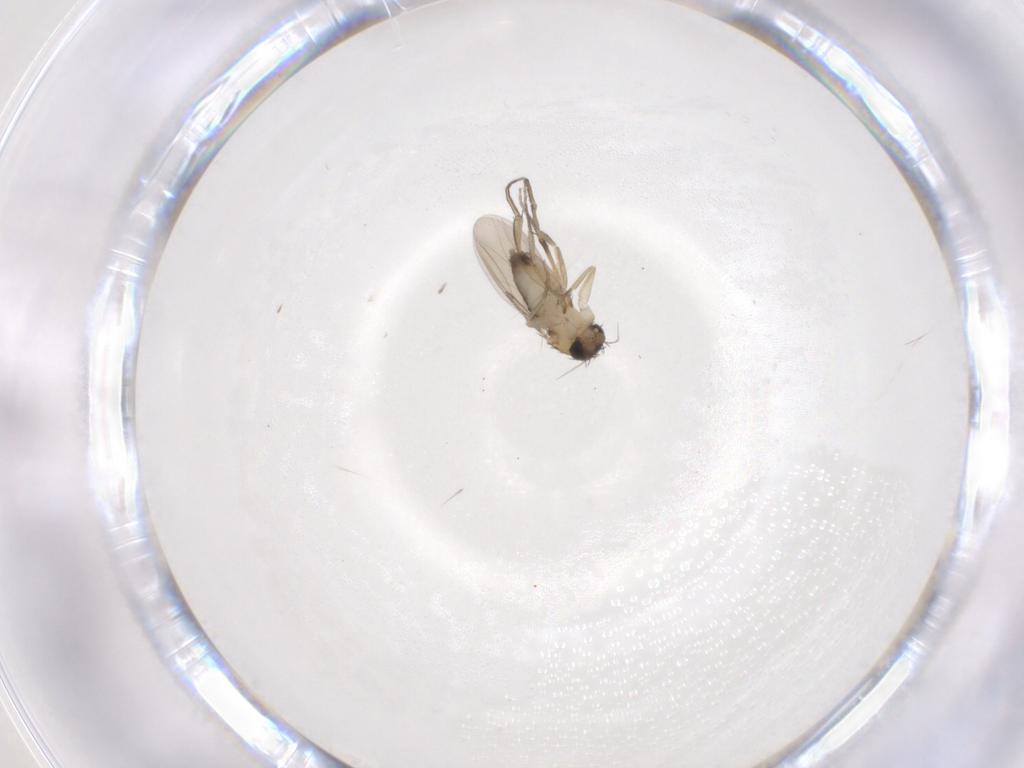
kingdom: Animalia
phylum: Arthropoda
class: Insecta
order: Diptera
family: Phoridae
